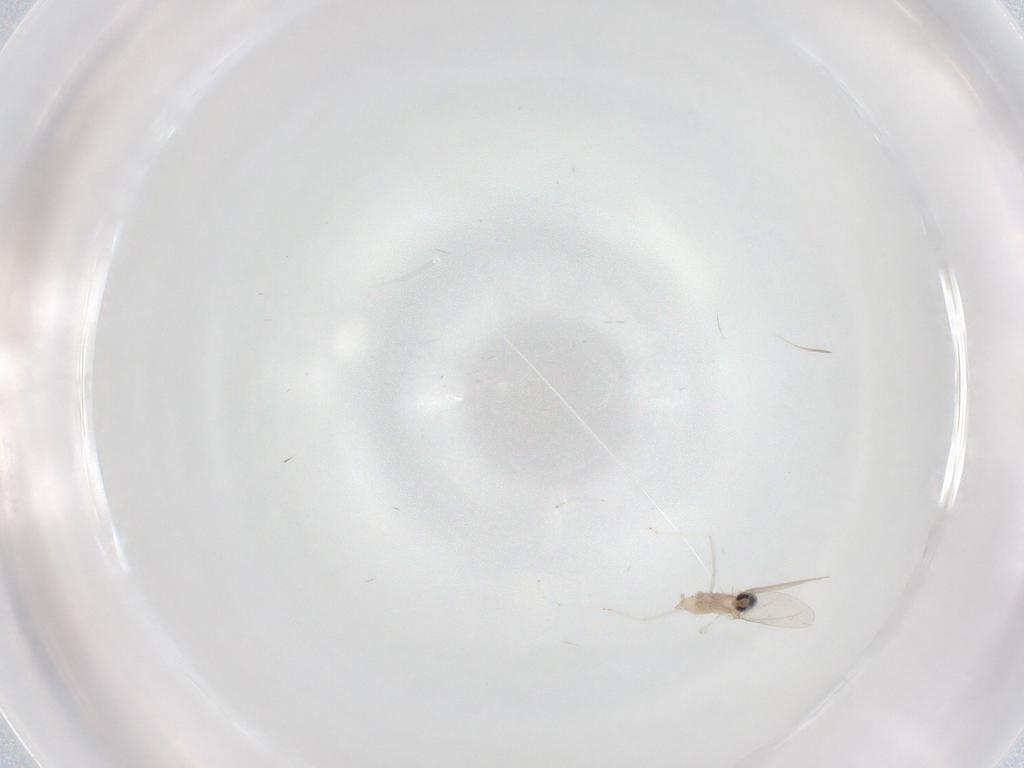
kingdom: Animalia
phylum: Arthropoda
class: Insecta
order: Diptera
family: Cecidomyiidae
